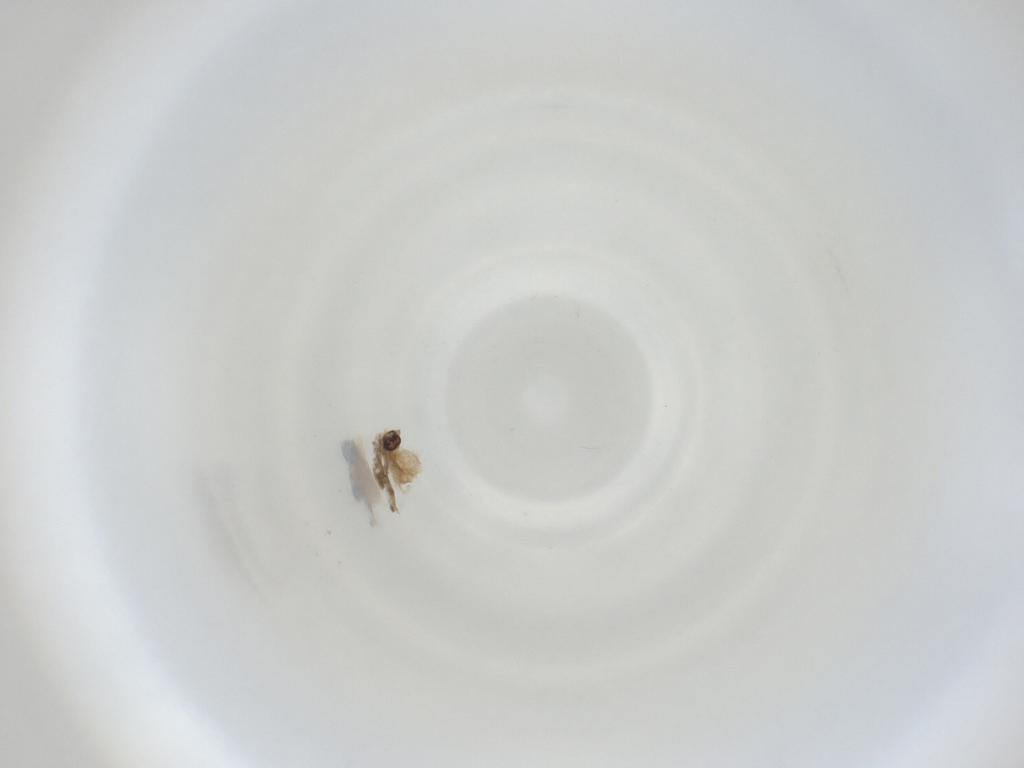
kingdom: Animalia
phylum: Arthropoda
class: Insecta
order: Diptera
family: Cecidomyiidae
